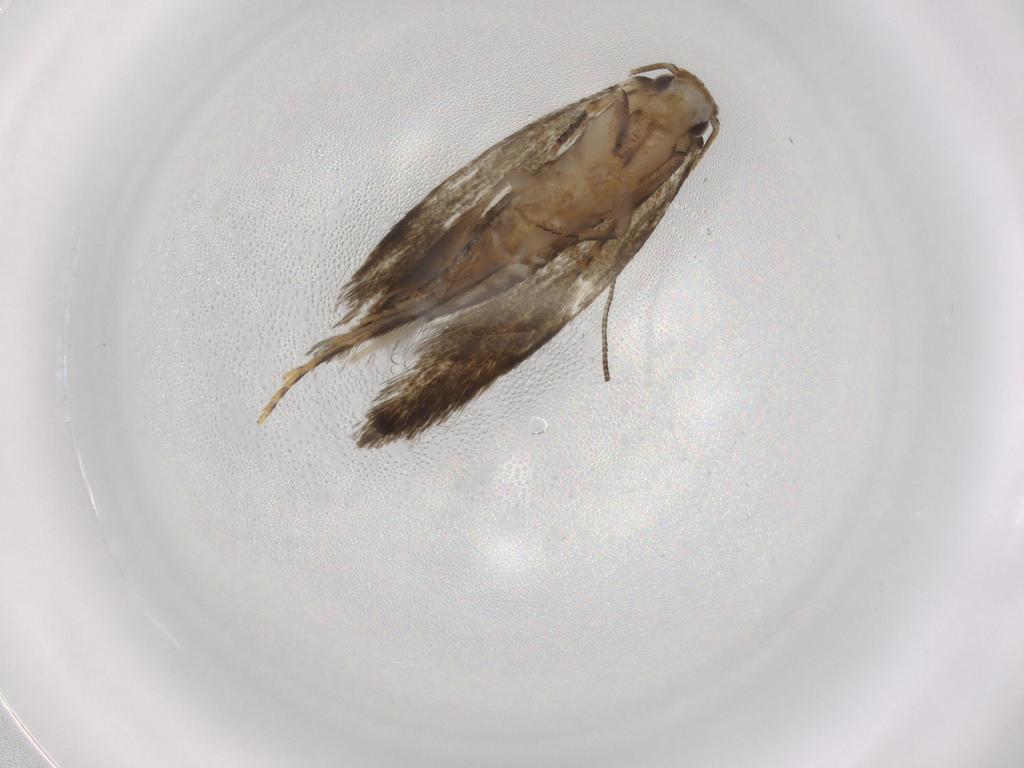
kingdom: Animalia
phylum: Arthropoda
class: Insecta
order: Lepidoptera
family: Tineidae
